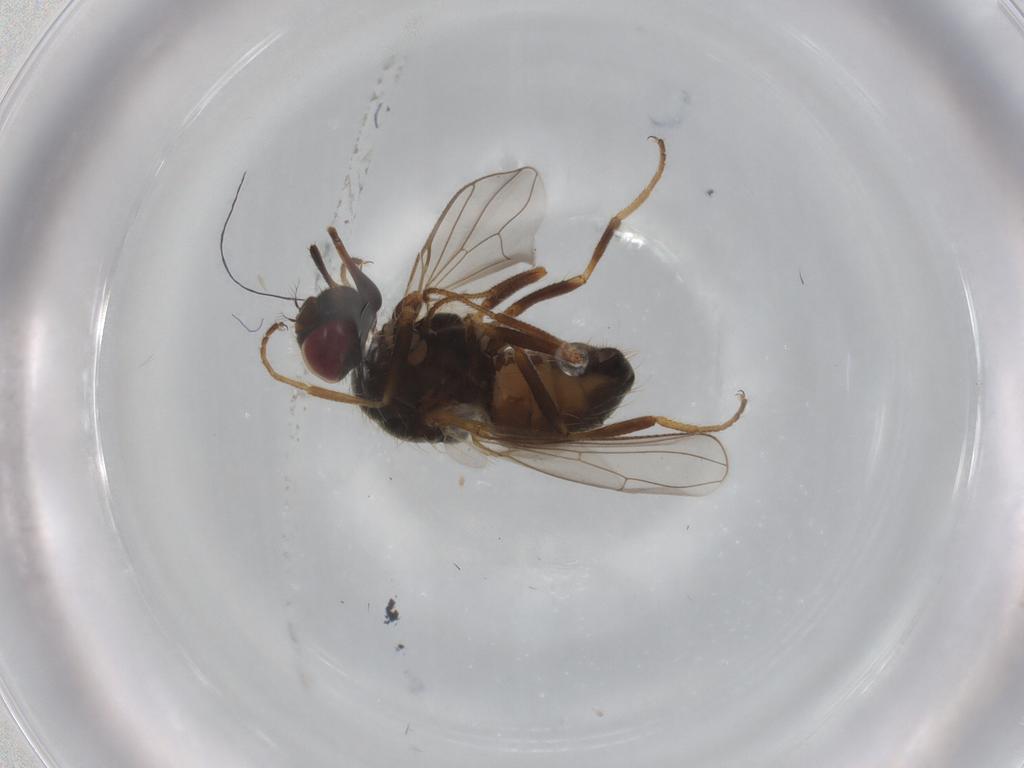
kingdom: Animalia
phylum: Arthropoda
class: Insecta
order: Diptera
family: Muscidae
